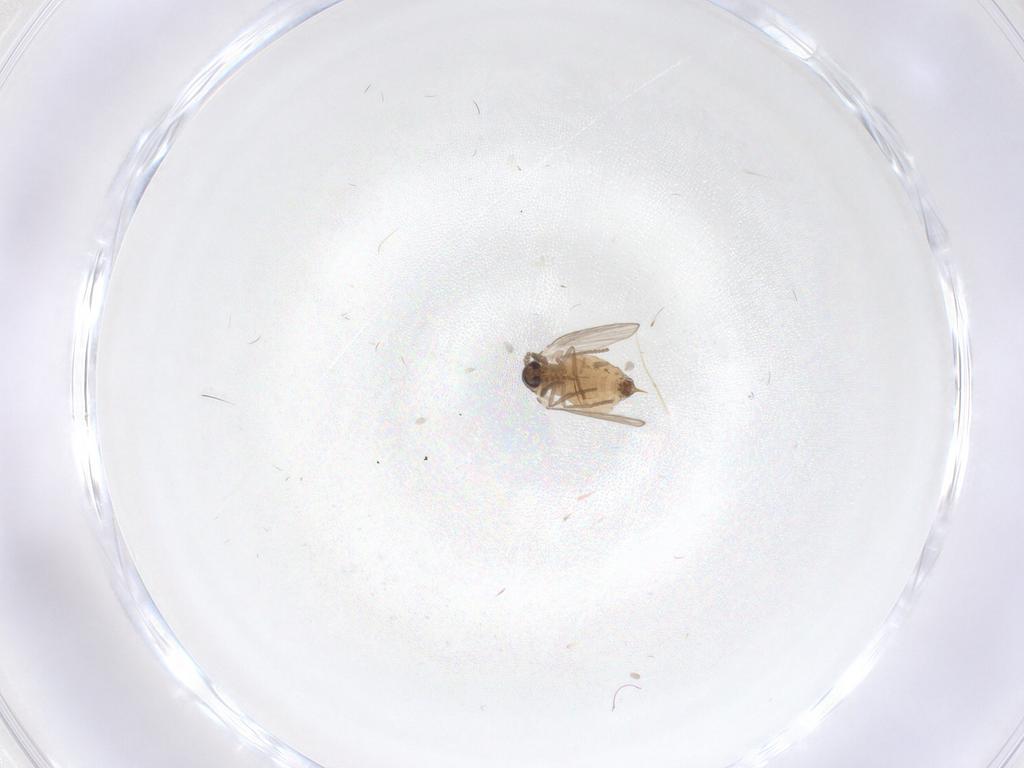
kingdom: Animalia
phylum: Arthropoda
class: Insecta
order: Diptera
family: Psychodidae
